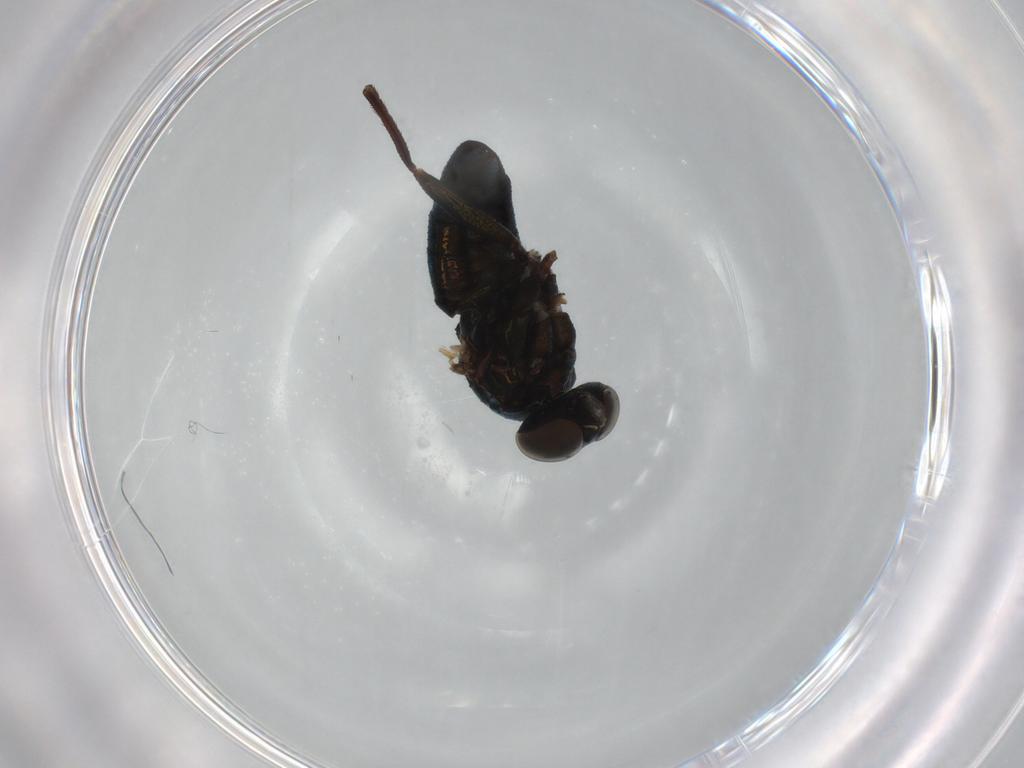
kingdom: Animalia
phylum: Arthropoda
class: Insecta
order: Diptera
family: Dolichopodidae
